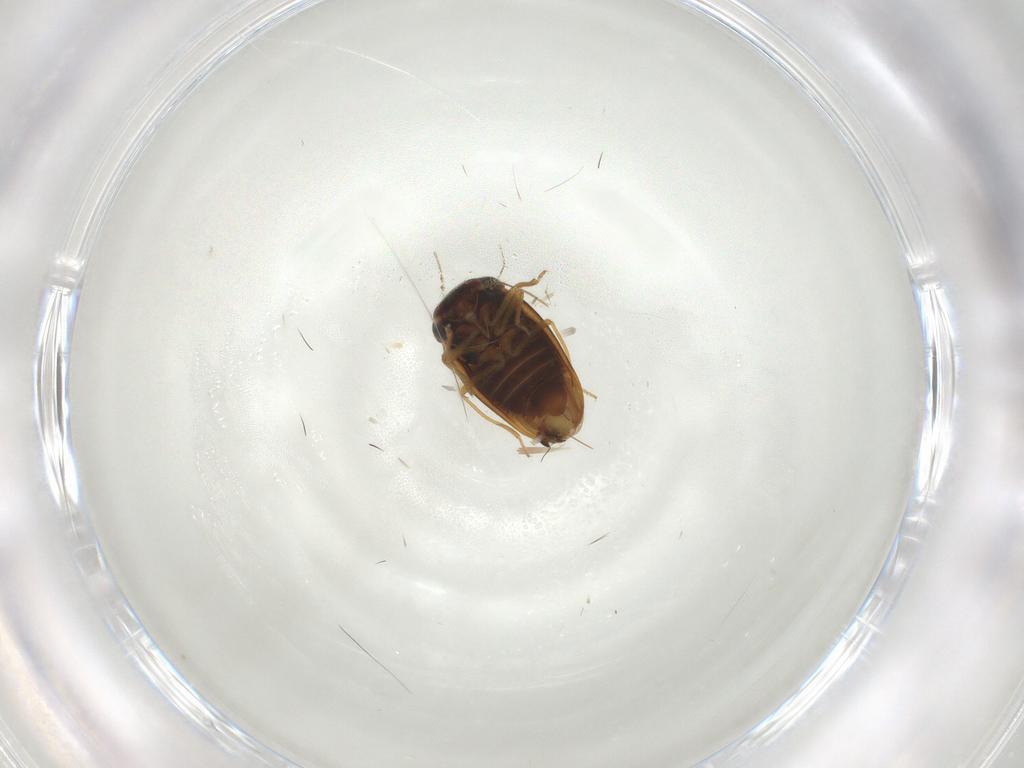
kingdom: Animalia
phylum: Arthropoda
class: Insecta
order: Hemiptera
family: Schizopteridae
